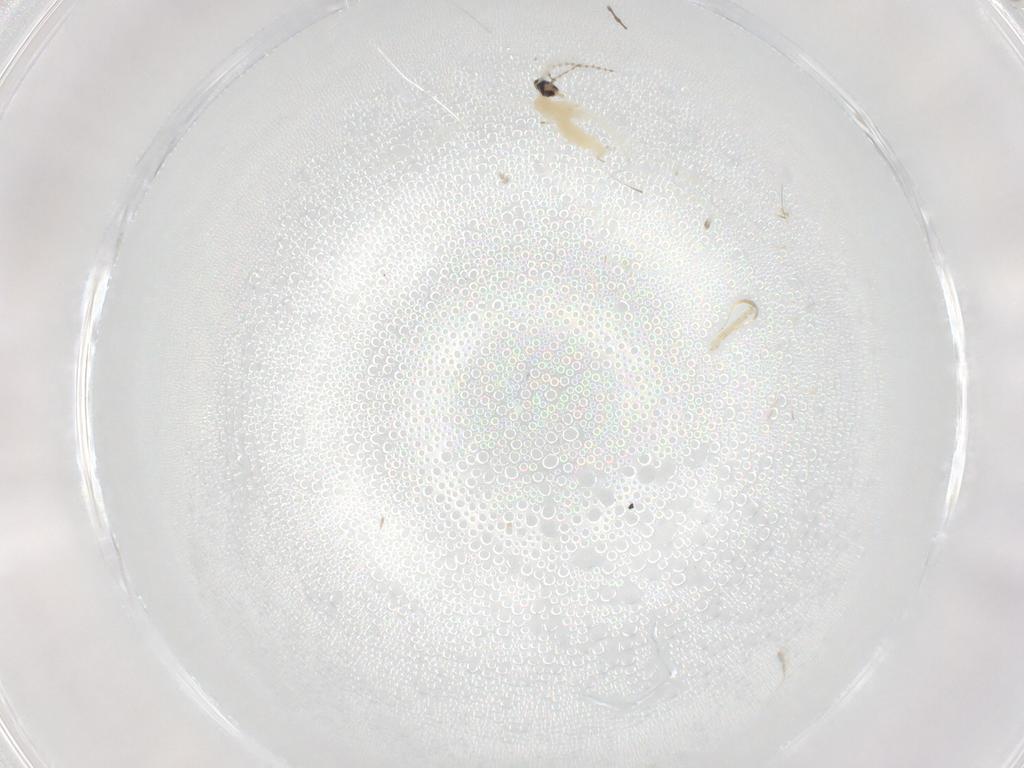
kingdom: Animalia
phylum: Arthropoda
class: Insecta
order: Diptera
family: Cecidomyiidae
